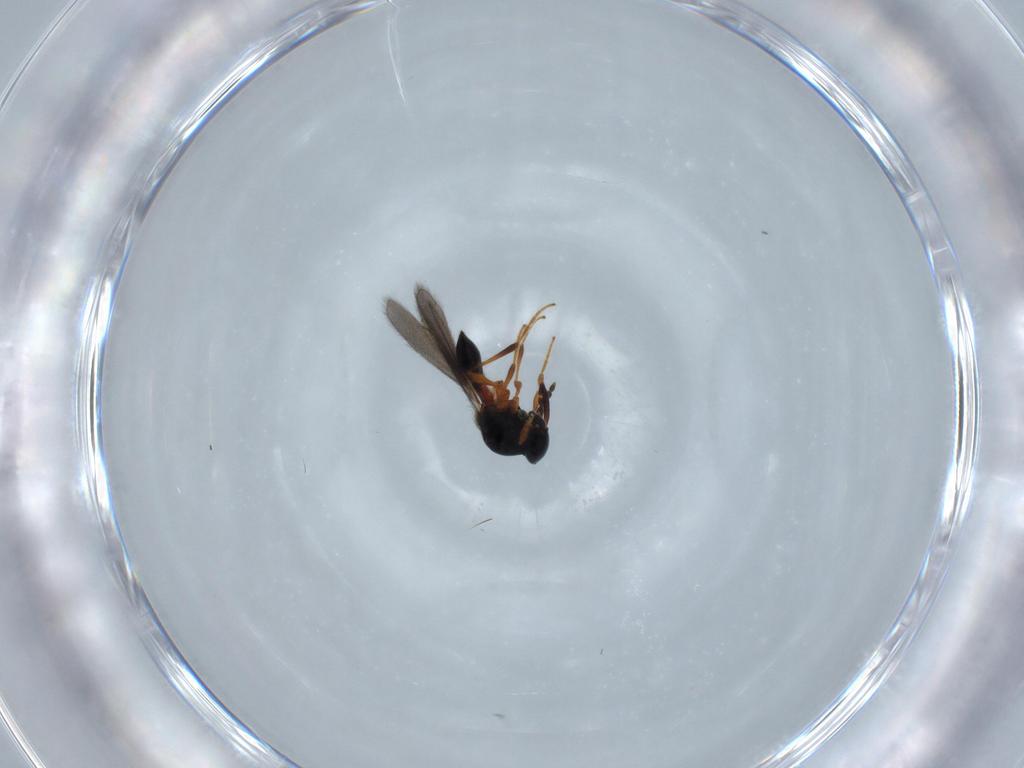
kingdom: Animalia
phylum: Arthropoda
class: Insecta
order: Hymenoptera
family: Platygastridae
